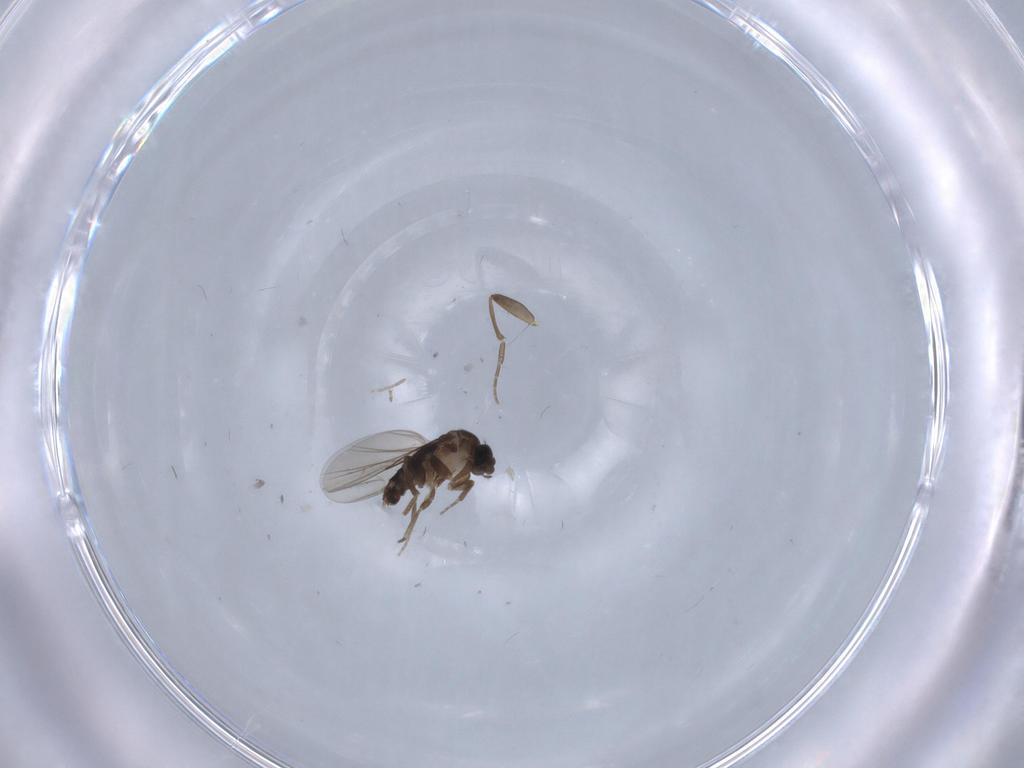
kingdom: Animalia
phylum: Arthropoda
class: Insecta
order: Diptera
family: Phoridae
